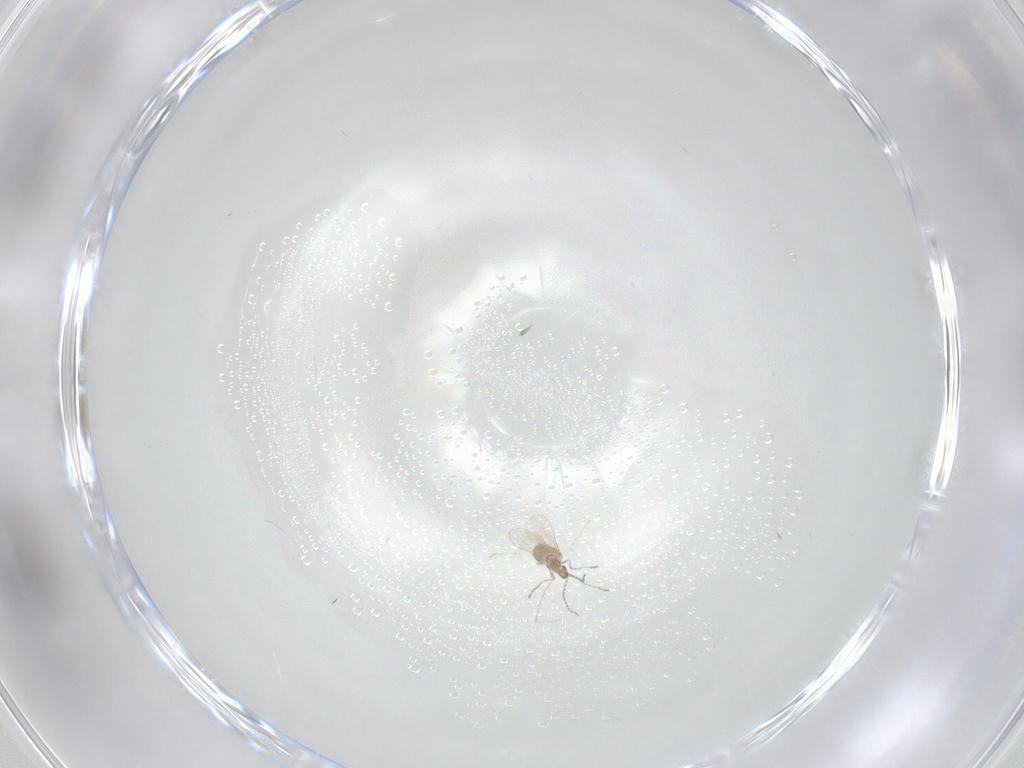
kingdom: Animalia
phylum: Arthropoda
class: Insecta
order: Diptera
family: Cecidomyiidae
